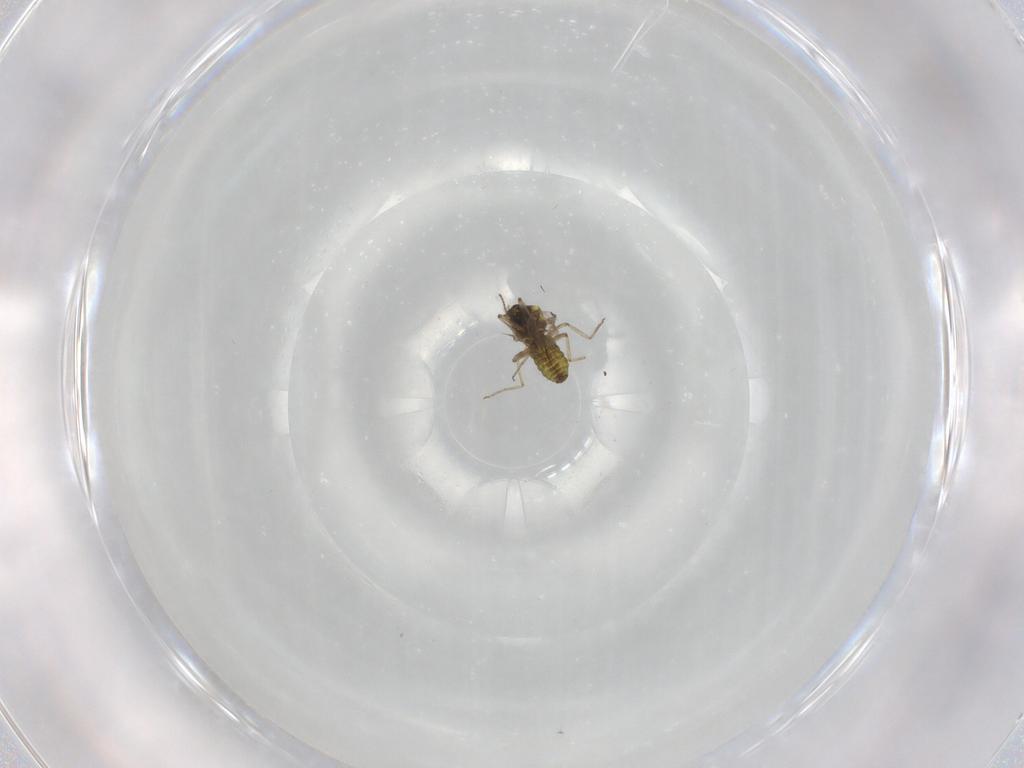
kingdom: Animalia
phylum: Arthropoda
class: Insecta
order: Diptera
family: Ceratopogonidae
